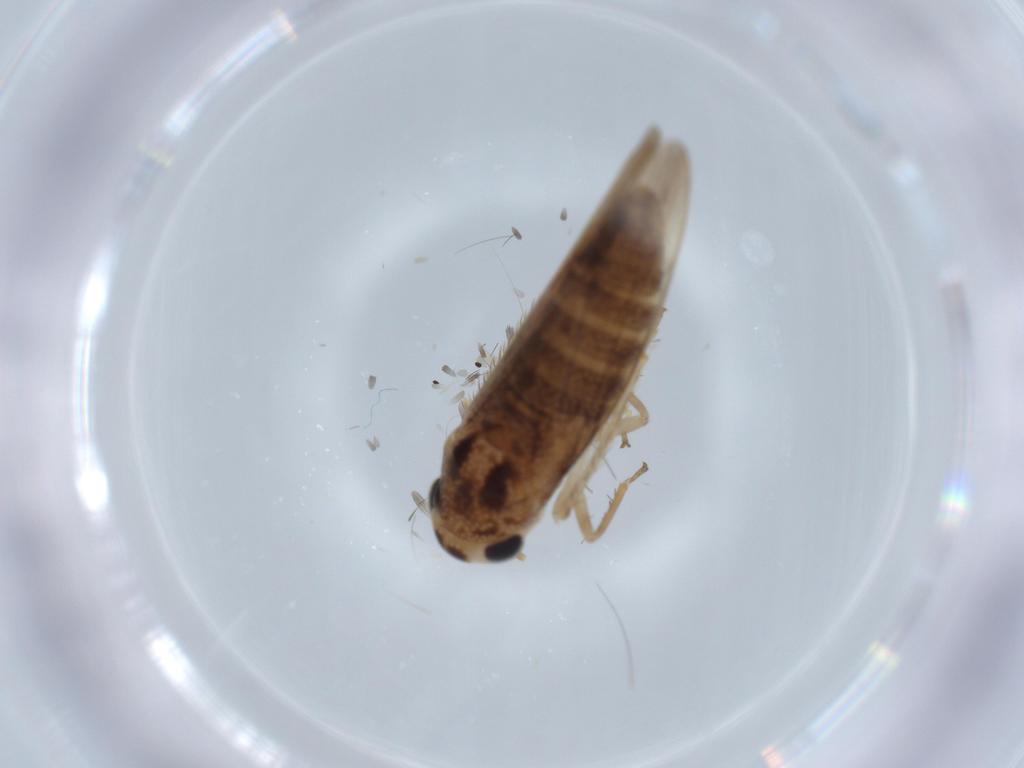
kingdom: Animalia
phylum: Arthropoda
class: Insecta
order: Hemiptera
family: Cicadellidae
